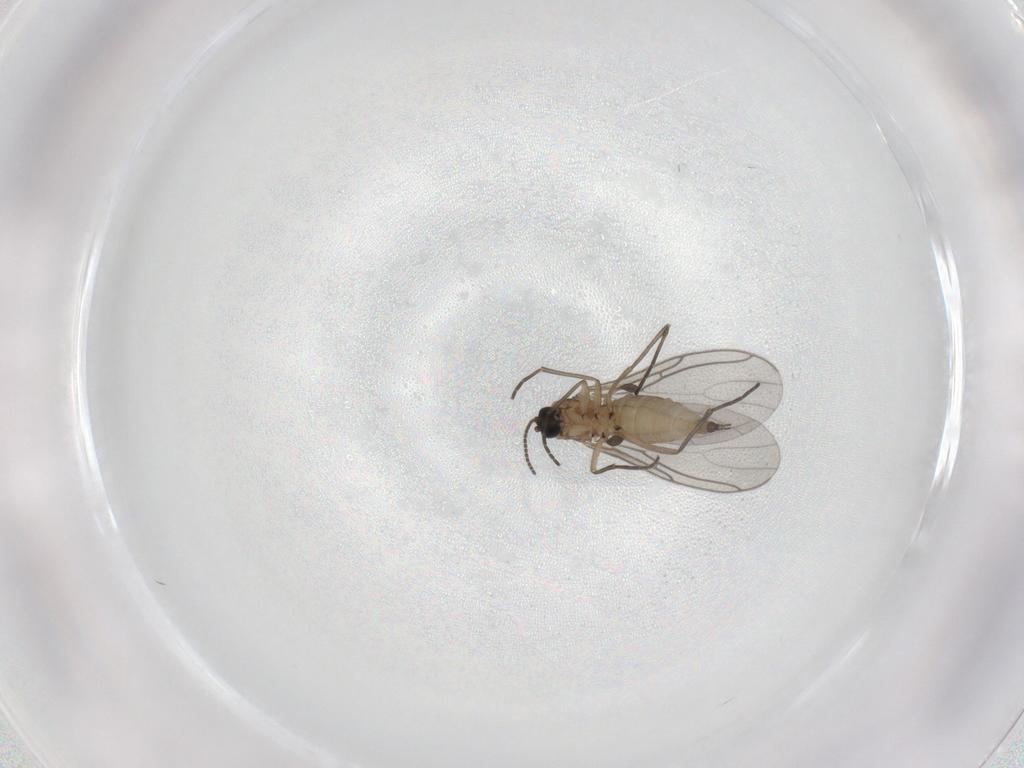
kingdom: Animalia
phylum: Arthropoda
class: Insecta
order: Diptera
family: Sciaridae
